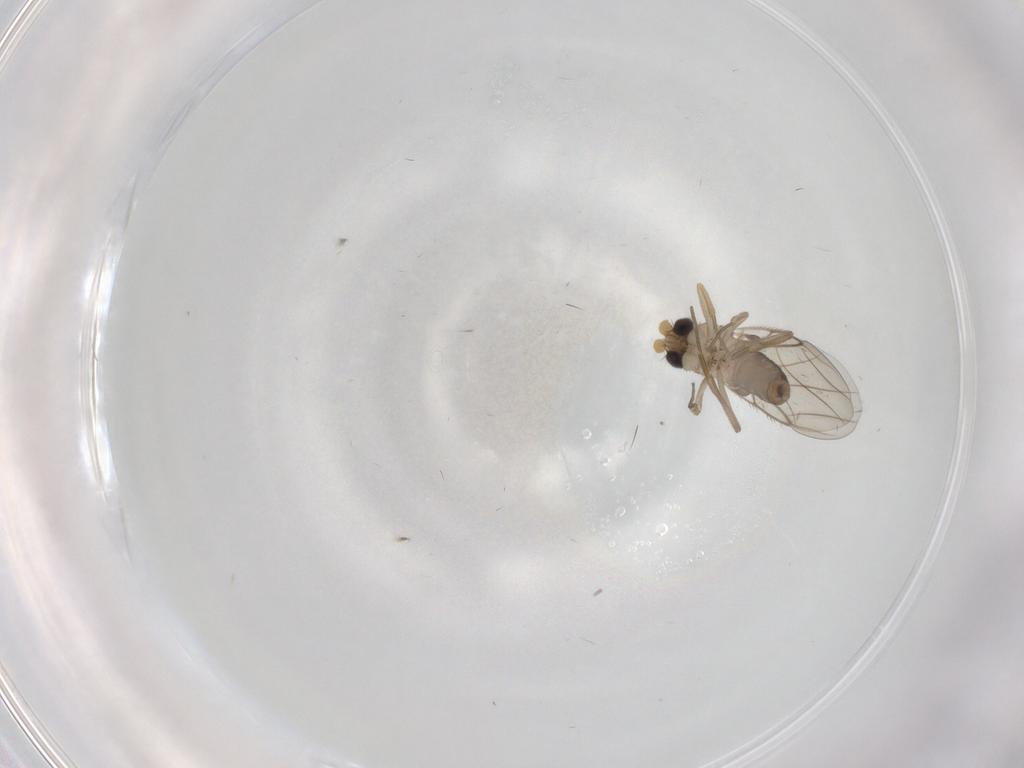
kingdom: Animalia
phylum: Arthropoda
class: Insecta
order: Diptera
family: Phoridae
